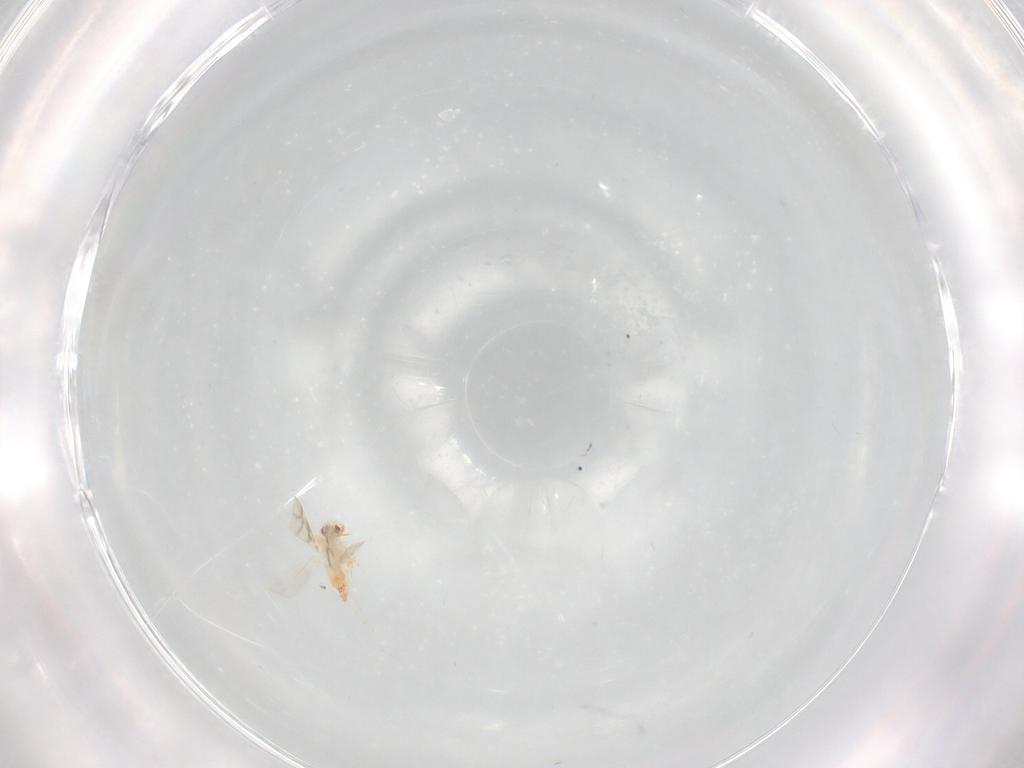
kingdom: Animalia
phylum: Arthropoda
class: Insecta
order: Hemiptera
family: Aleyrodidae
